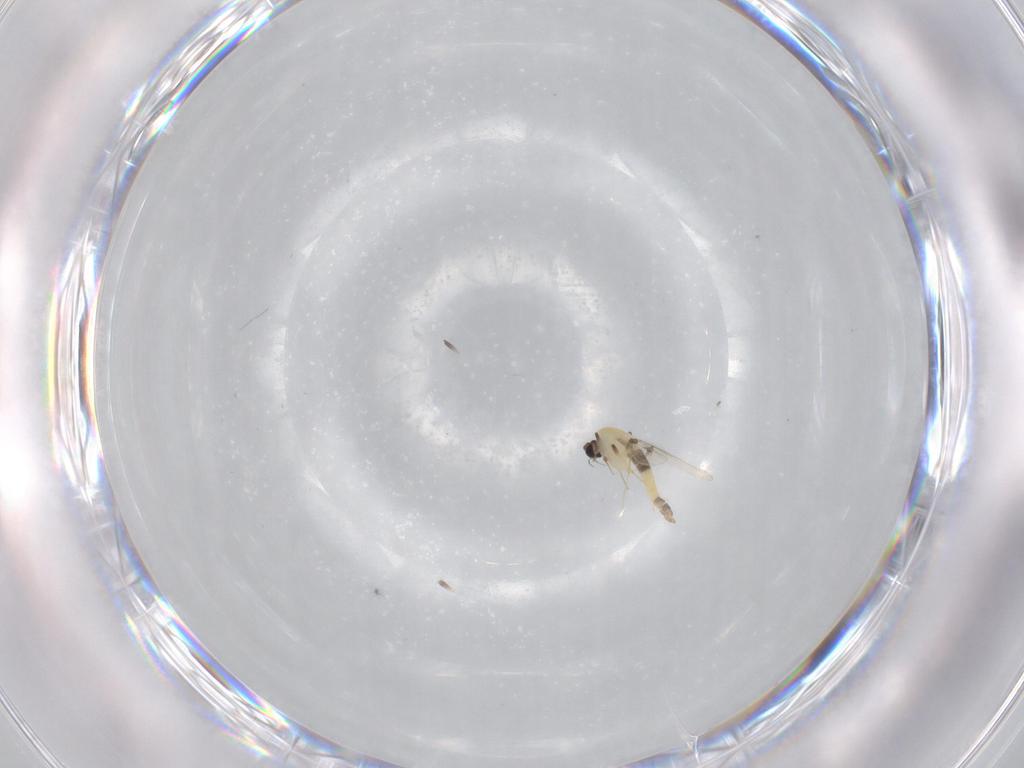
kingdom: Animalia
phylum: Arthropoda
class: Insecta
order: Diptera
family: Chironomidae
